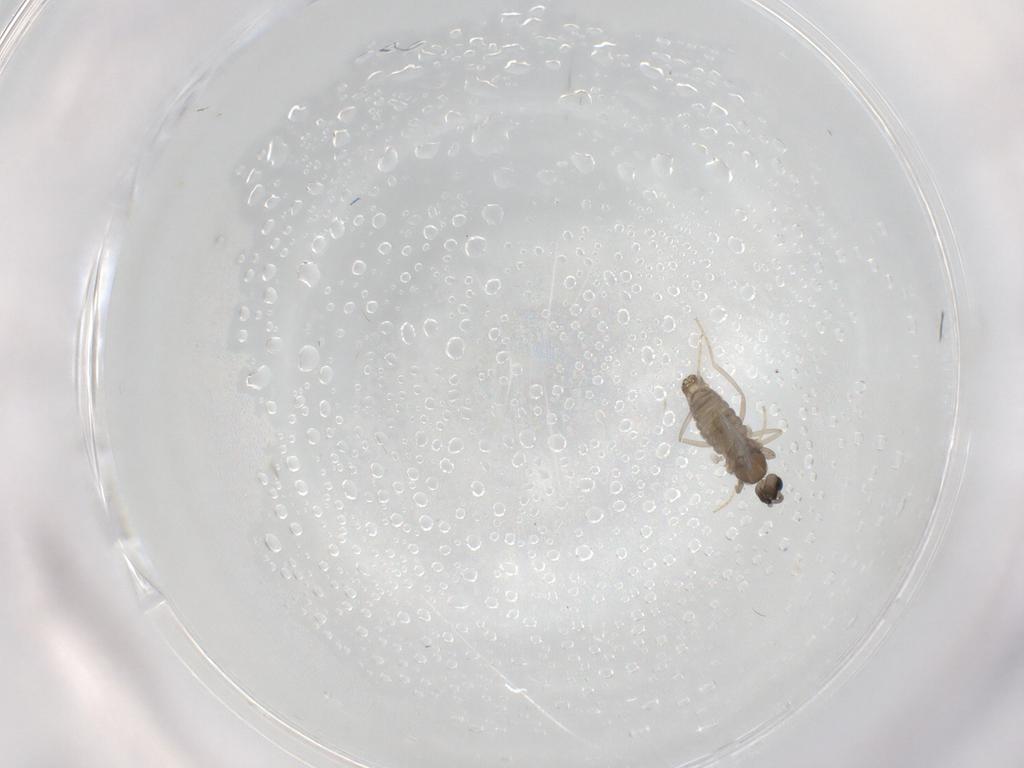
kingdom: Animalia
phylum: Arthropoda
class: Insecta
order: Diptera
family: Cecidomyiidae
